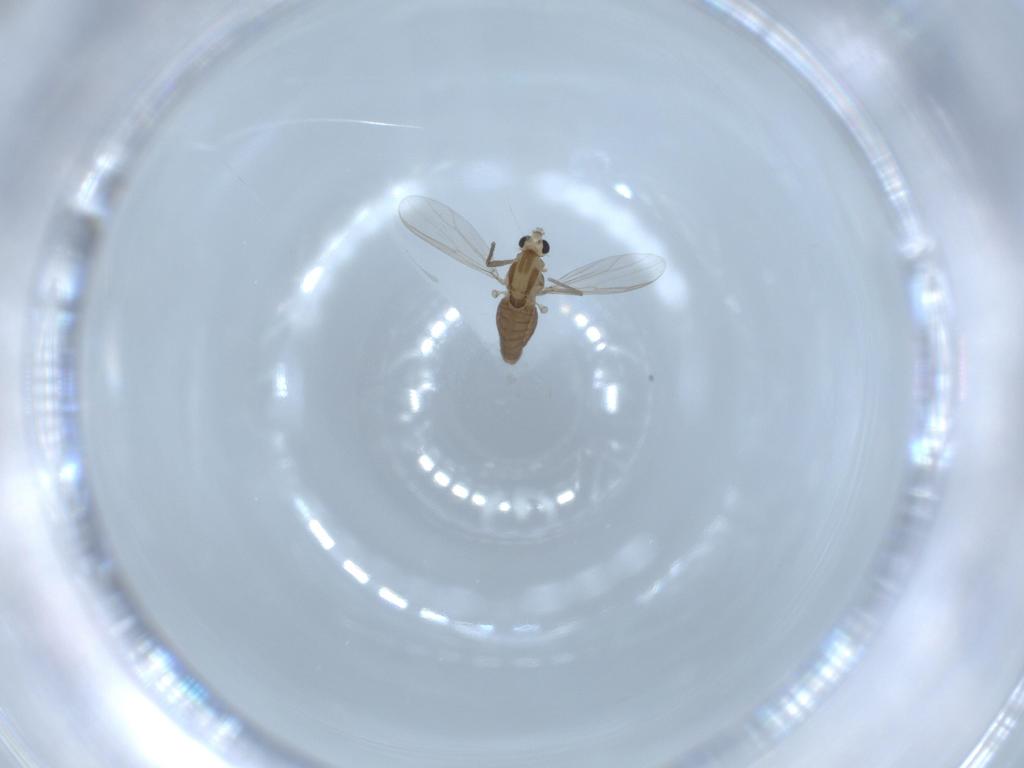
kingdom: Animalia
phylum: Arthropoda
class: Insecta
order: Diptera
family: Chironomidae
